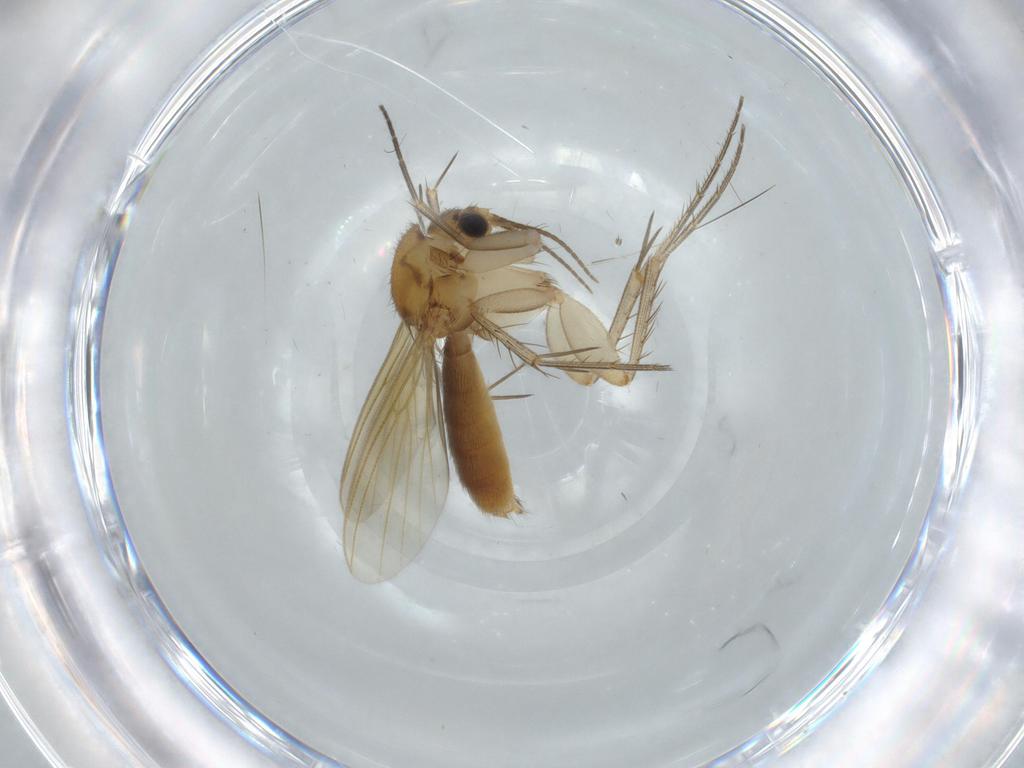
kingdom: Animalia
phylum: Arthropoda
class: Insecta
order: Diptera
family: Mycetophilidae
